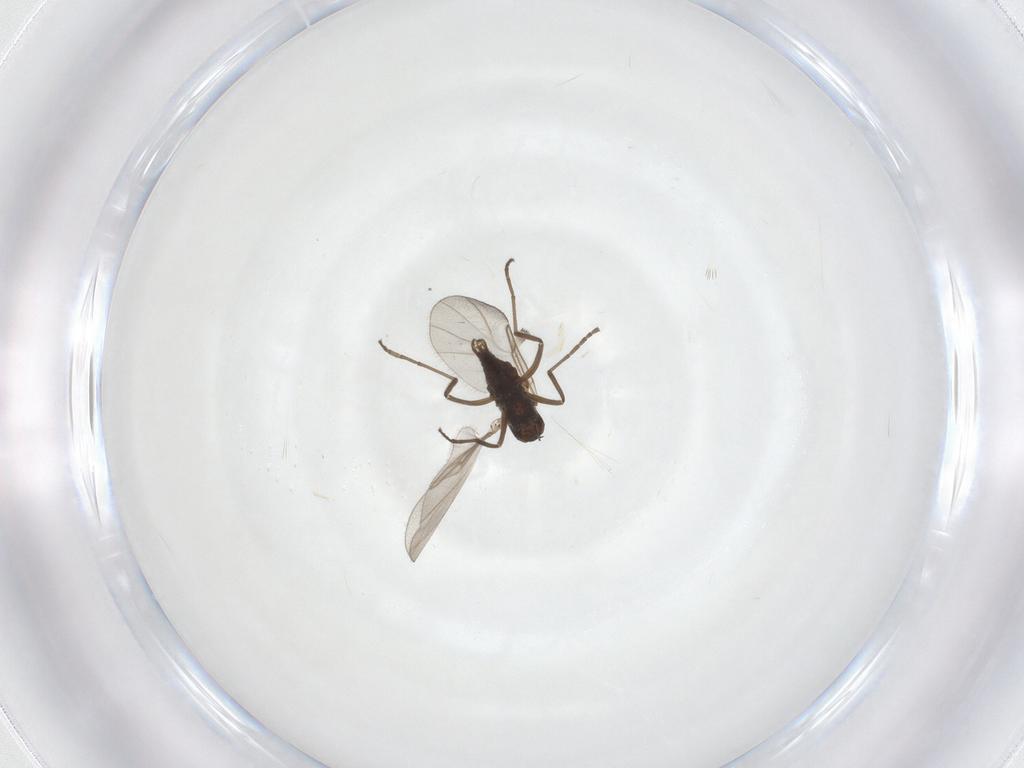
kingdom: Animalia
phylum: Arthropoda
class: Insecta
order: Diptera
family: Cecidomyiidae
